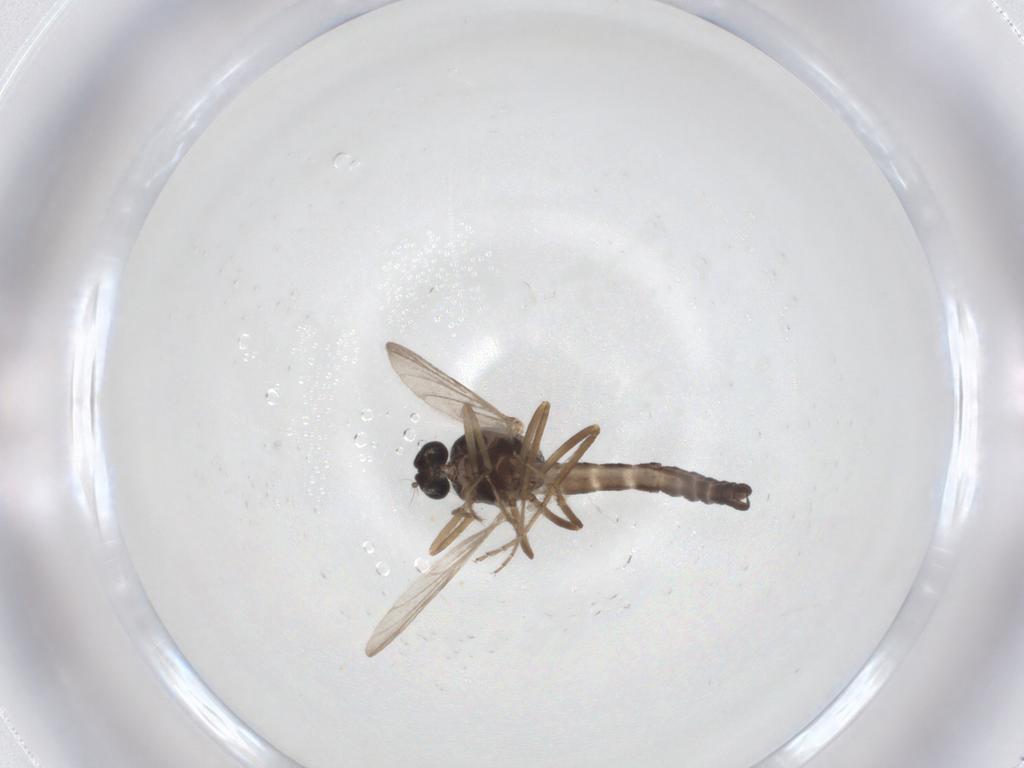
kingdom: Animalia
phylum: Arthropoda
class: Insecta
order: Diptera
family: Ceratopogonidae
